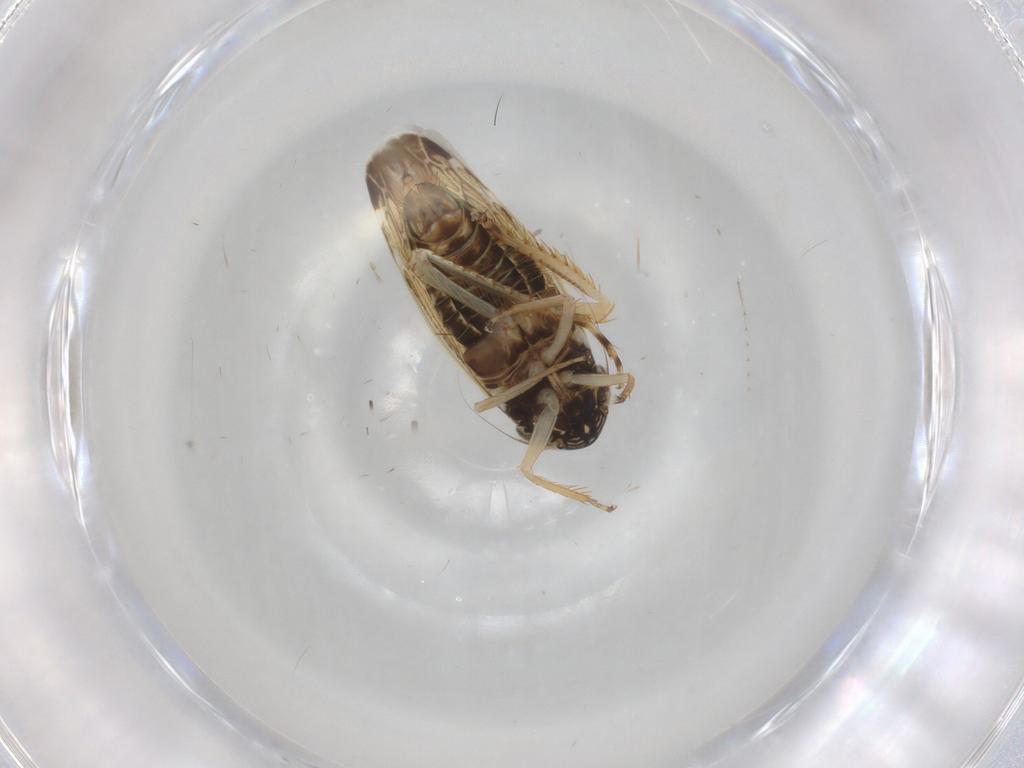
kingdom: Animalia
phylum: Arthropoda
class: Insecta
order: Hemiptera
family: Cicadellidae
